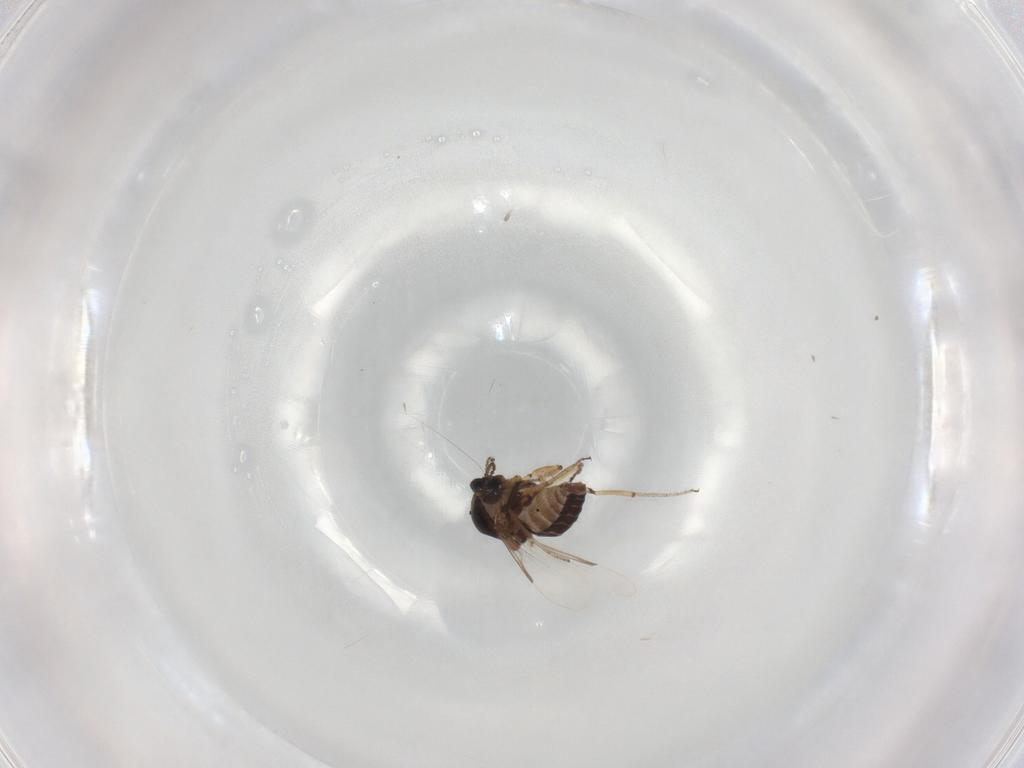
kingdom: Animalia
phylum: Arthropoda
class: Insecta
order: Diptera
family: Ceratopogonidae
